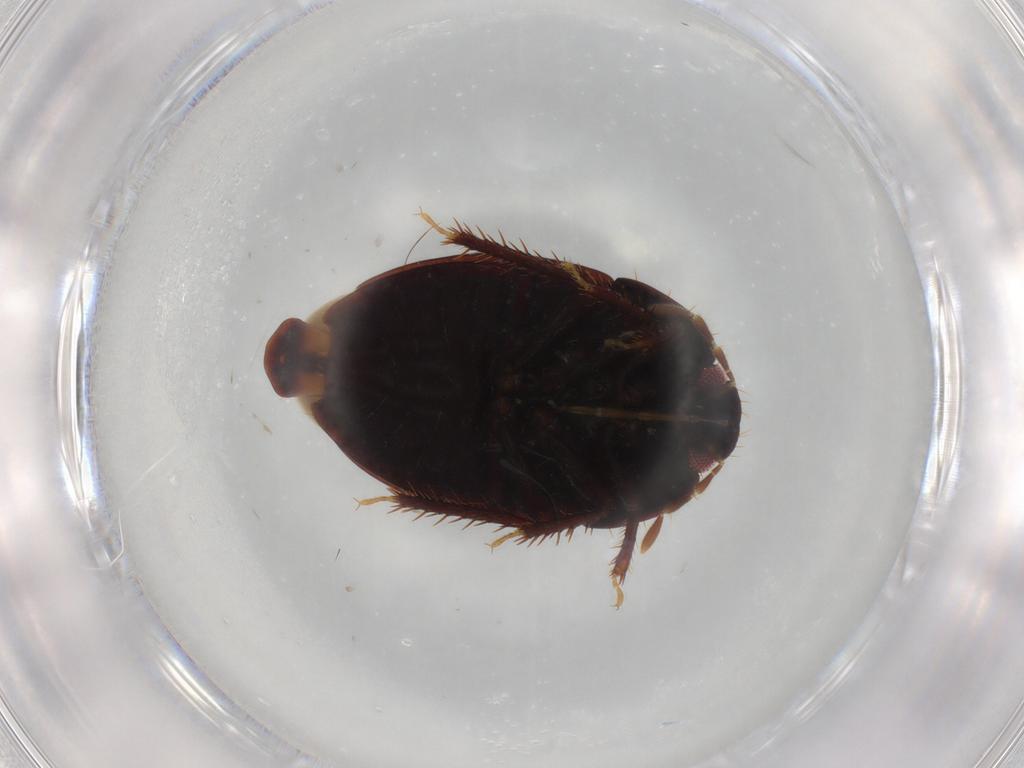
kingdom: Animalia
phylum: Arthropoda
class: Insecta
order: Hemiptera
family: Cydnidae
